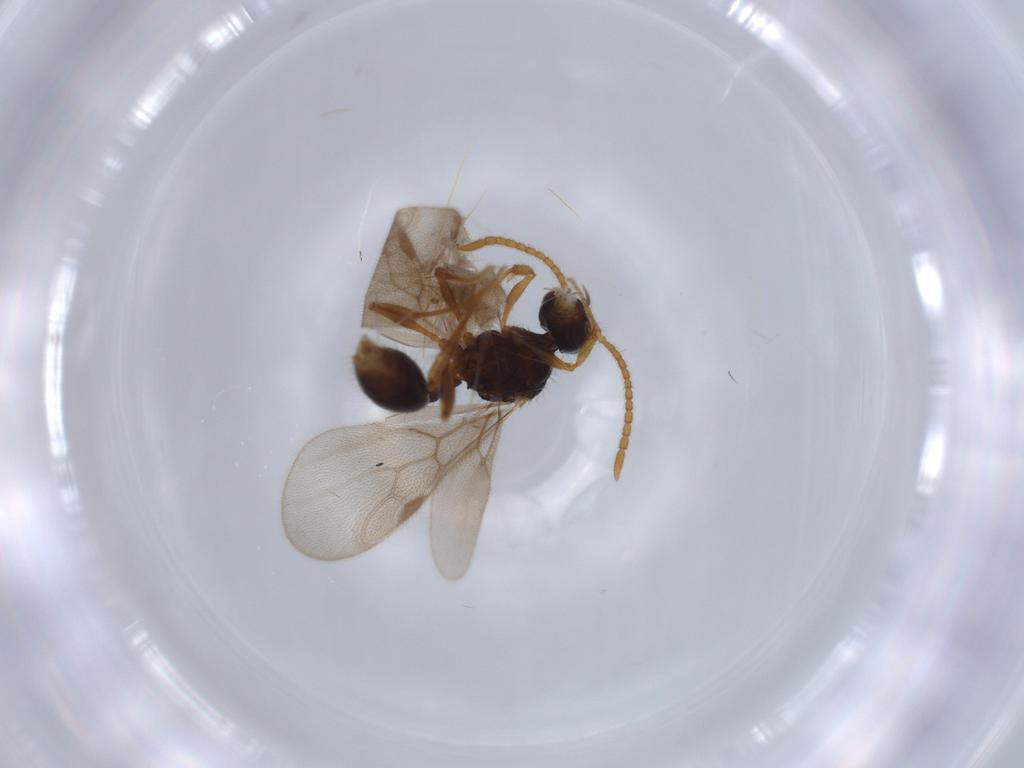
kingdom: Animalia
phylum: Arthropoda
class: Insecta
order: Hymenoptera
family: Formicidae
